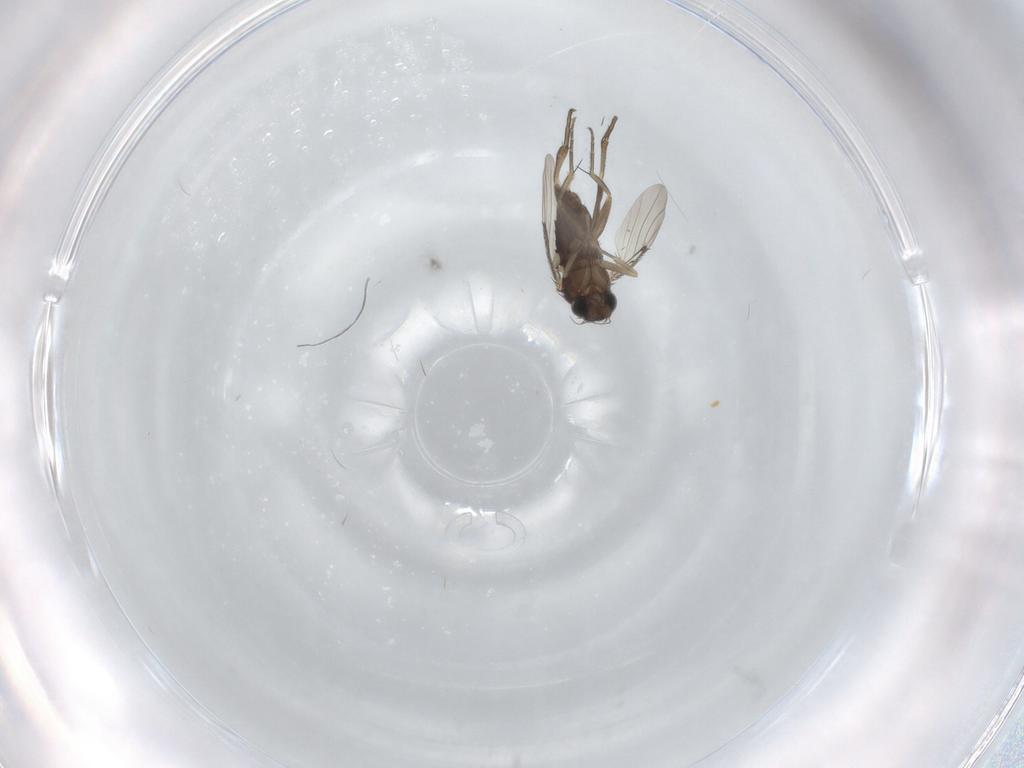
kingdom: Animalia
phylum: Arthropoda
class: Insecta
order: Diptera
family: Phoridae
